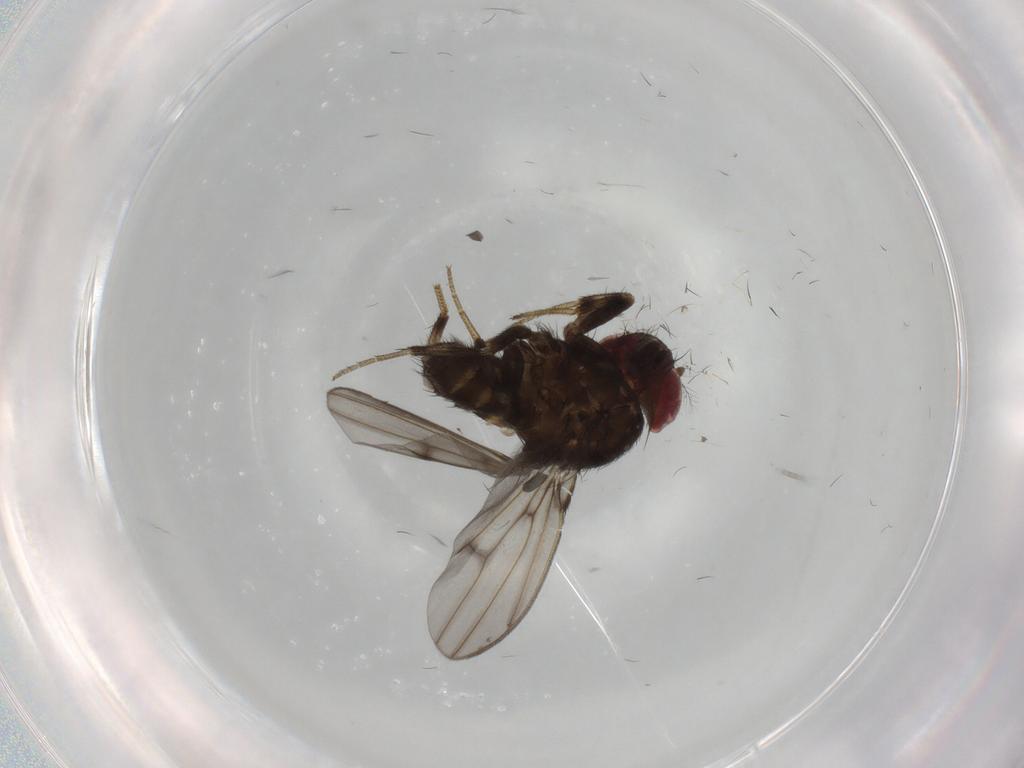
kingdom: Animalia
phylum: Arthropoda
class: Insecta
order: Diptera
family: Drosophilidae
